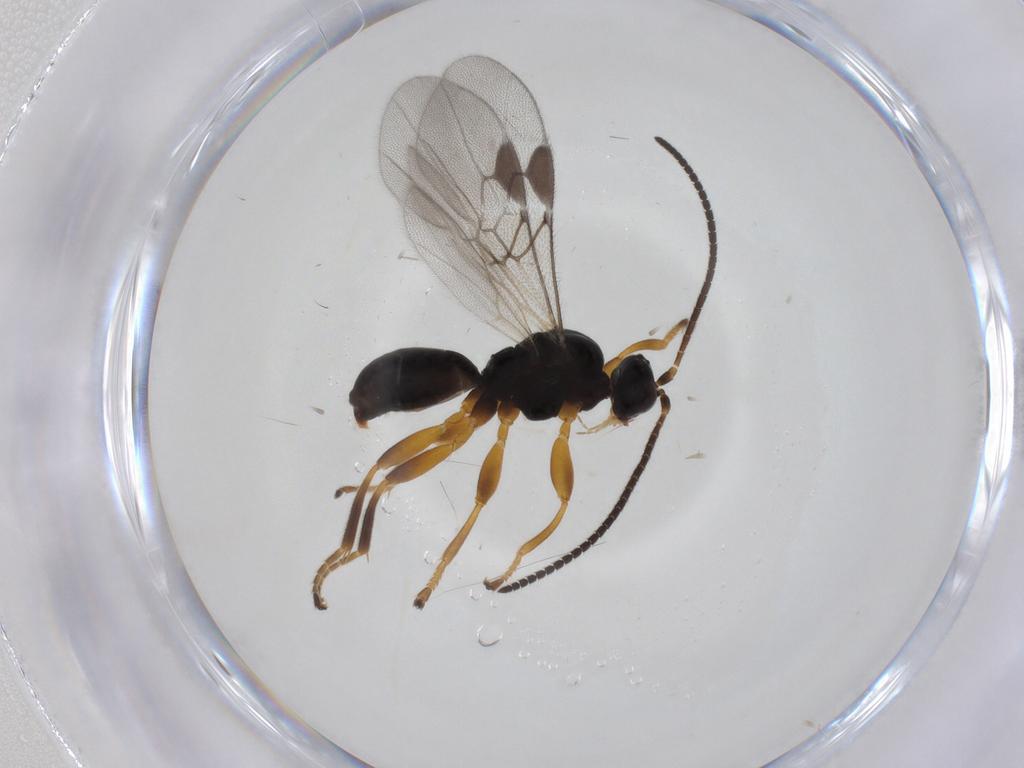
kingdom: Animalia
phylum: Arthropoda
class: Insecta
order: Hymenoptera
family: Braconidae
